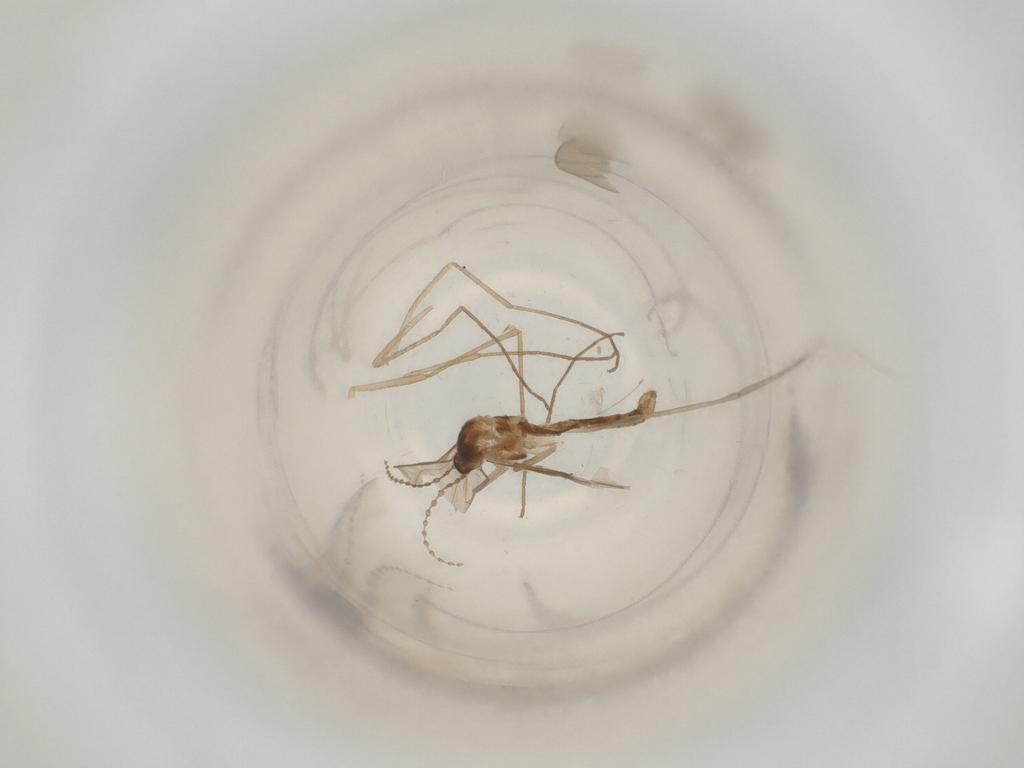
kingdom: Animalia
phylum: Arthropoda
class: Insecta
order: Diptera
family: Cecidomyiidae
